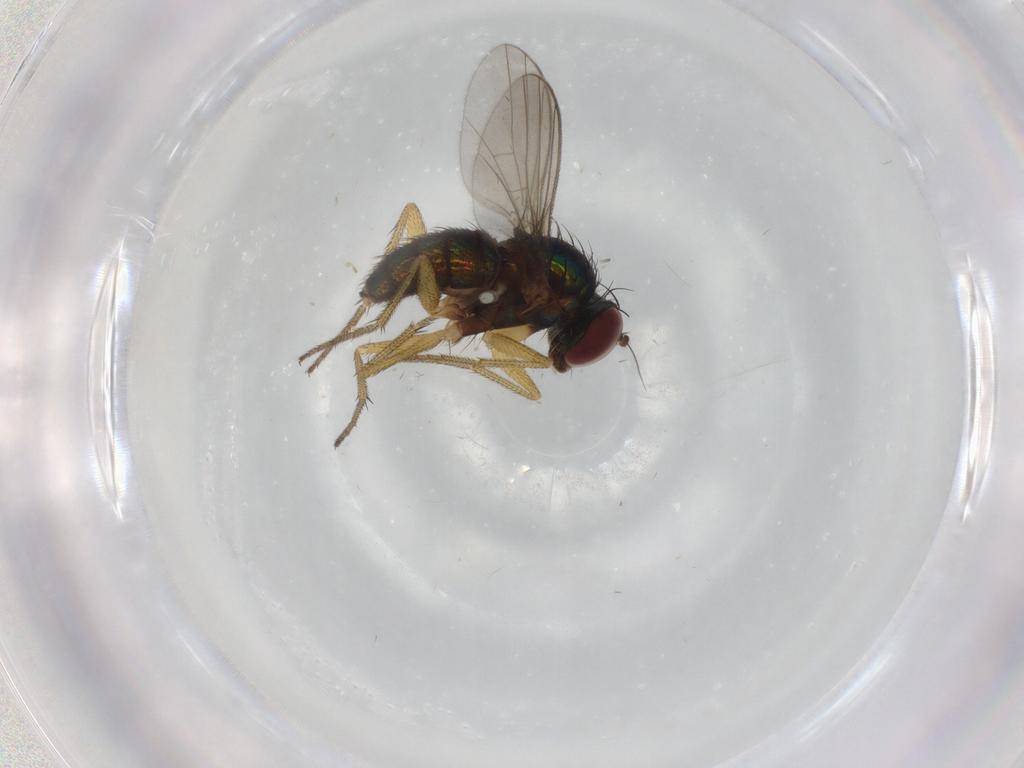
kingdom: Animalia
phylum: Arthropoda
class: Insecta
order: Diptera
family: Dolichopodidae
